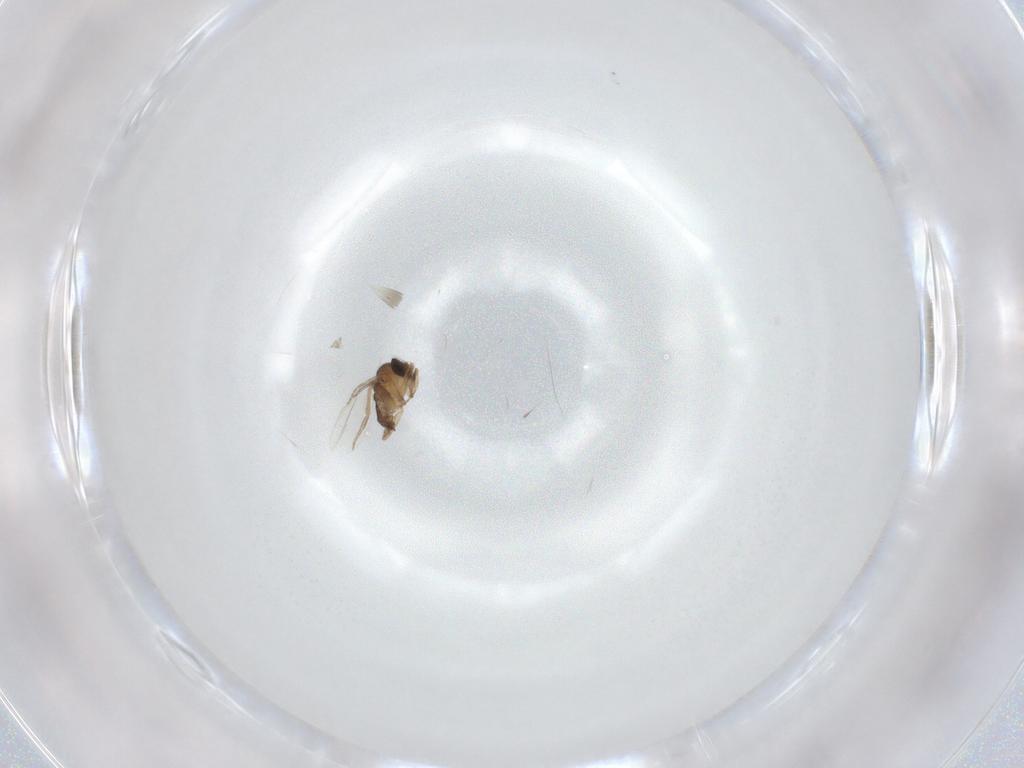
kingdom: Animalia
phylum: Arthropoda
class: Insecta
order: Diptera
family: Phoridae
